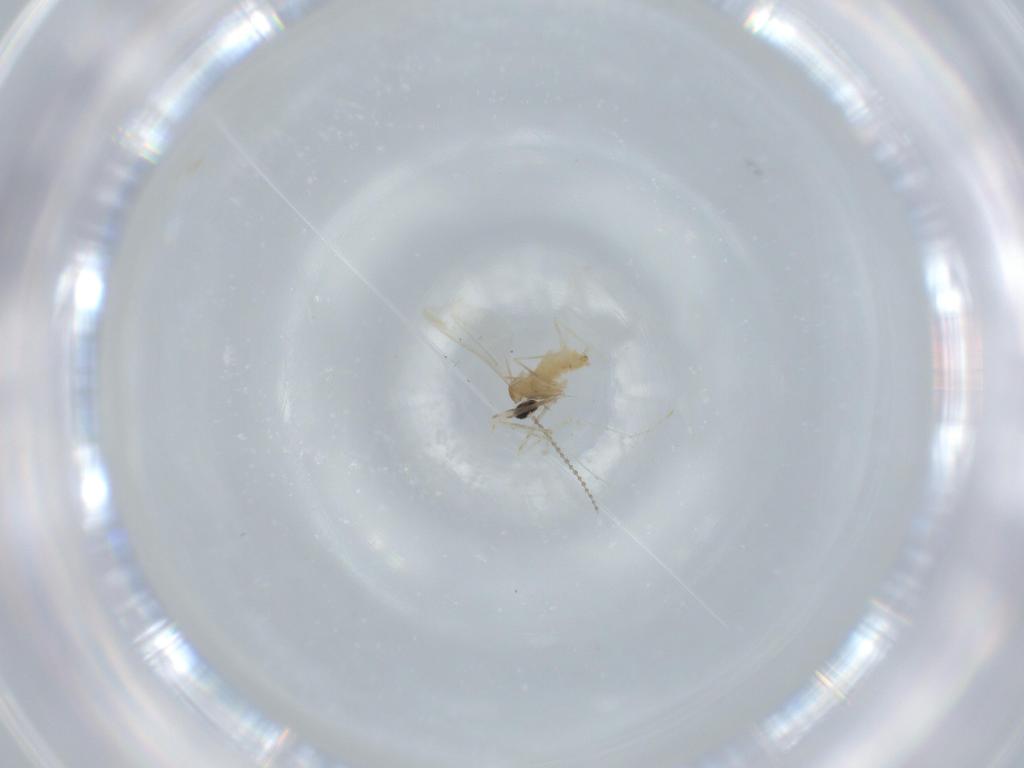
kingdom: Animalia
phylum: Arthropoda
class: Insecta
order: Diptera
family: Cecidomyiidae
